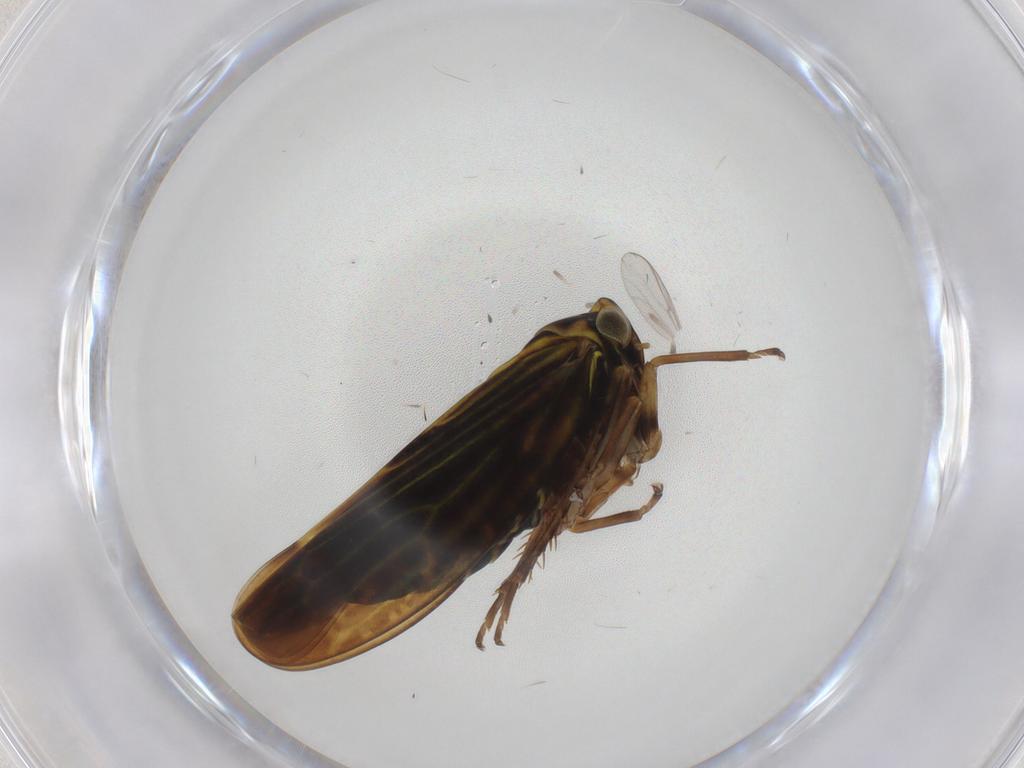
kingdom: Animalia
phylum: Arthropoda
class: Insecta
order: Hemiptera
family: Cicadellidae
